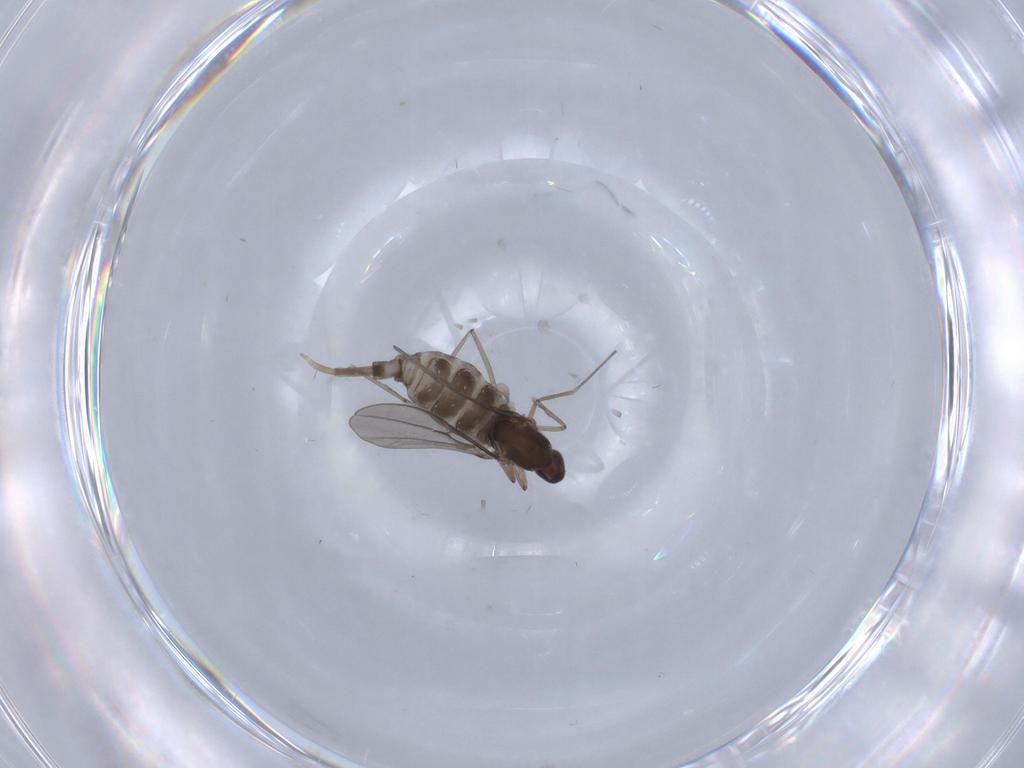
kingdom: Animalia
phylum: Arthropoda
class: Insecta
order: Diptera
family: Cecidomyiidae
